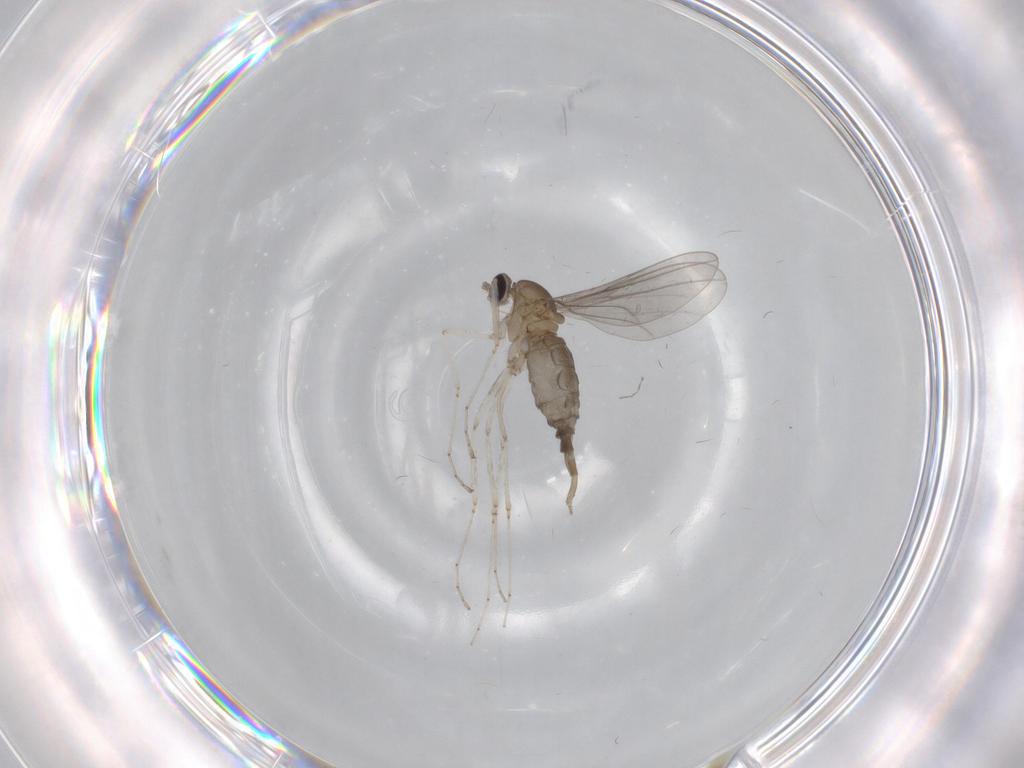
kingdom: Animalia
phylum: Arthropoda
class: Insecta
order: Diptera
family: Cecidomyiidae
